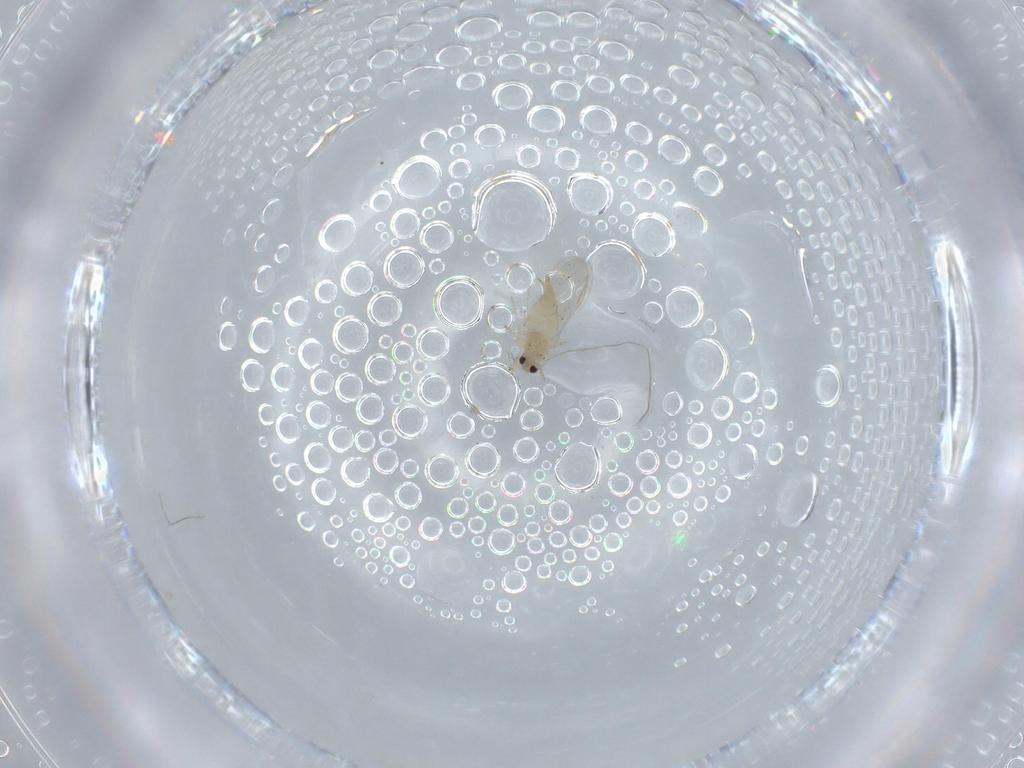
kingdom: Animalia
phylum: Arthropoda
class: Insecta
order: Diptera
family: Cecidomyiidae
